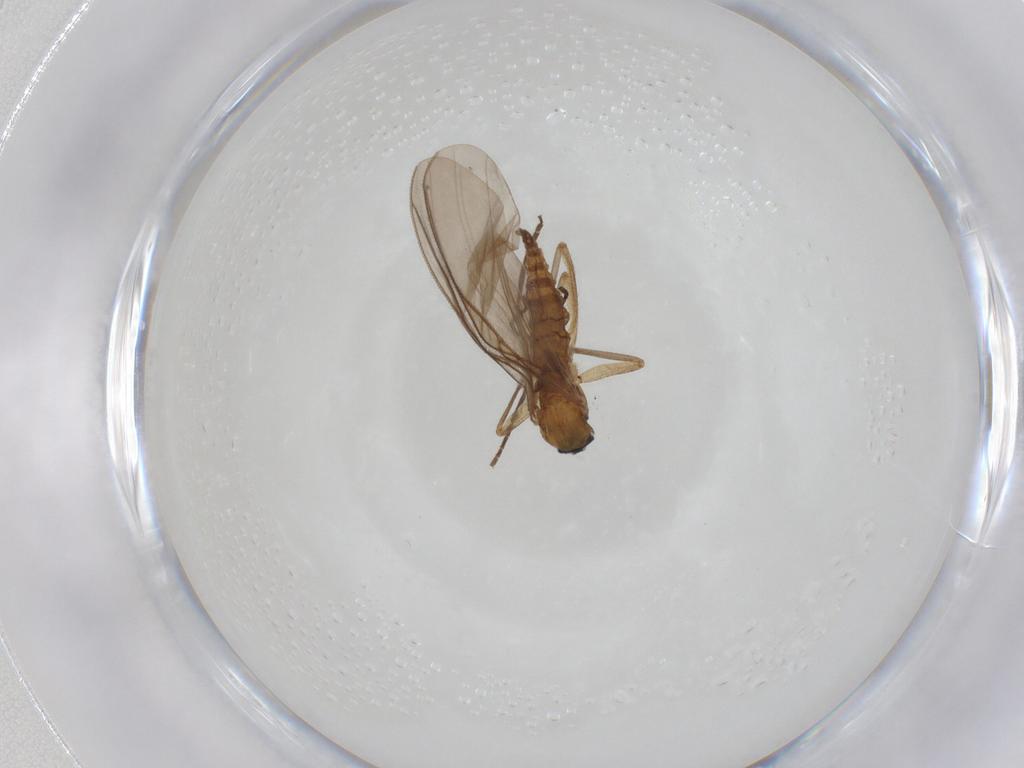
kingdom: Animalia
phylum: Arthropoda
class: Insecta
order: Diptera
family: Sciaridae
